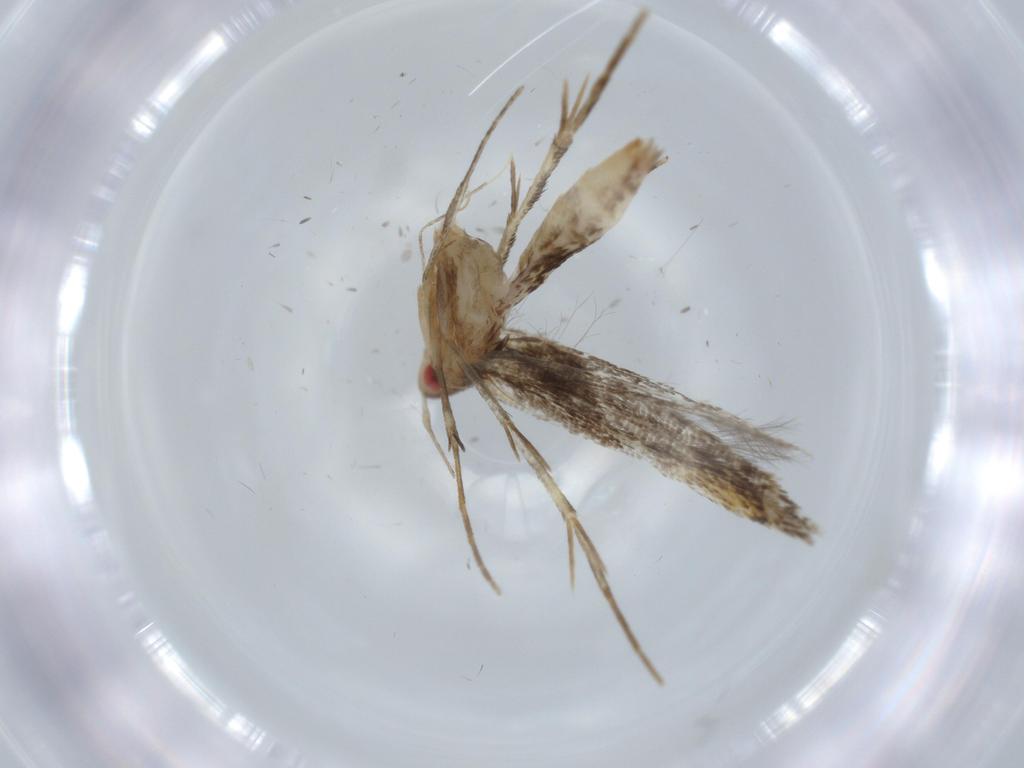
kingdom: Animalia
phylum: Arthropoda
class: Insecta
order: Lepidoptera
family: Cosmopterigidae
